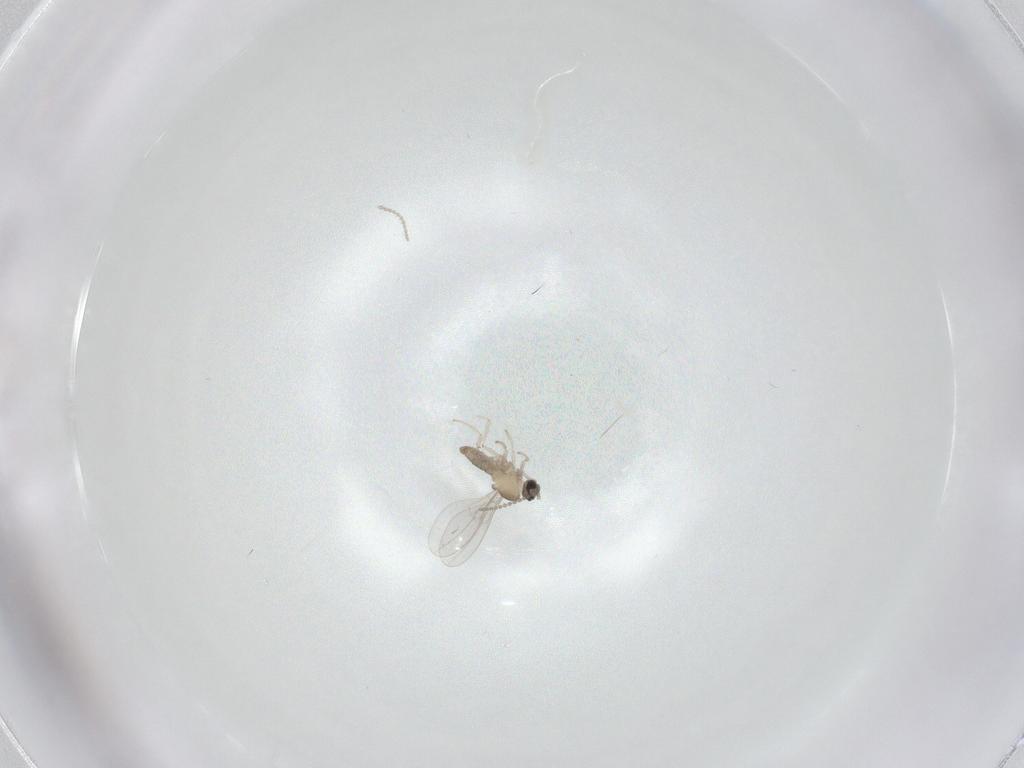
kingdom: Animalia
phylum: Arthropoda
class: Insecta
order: Diptera
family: Cecidomyiidae
